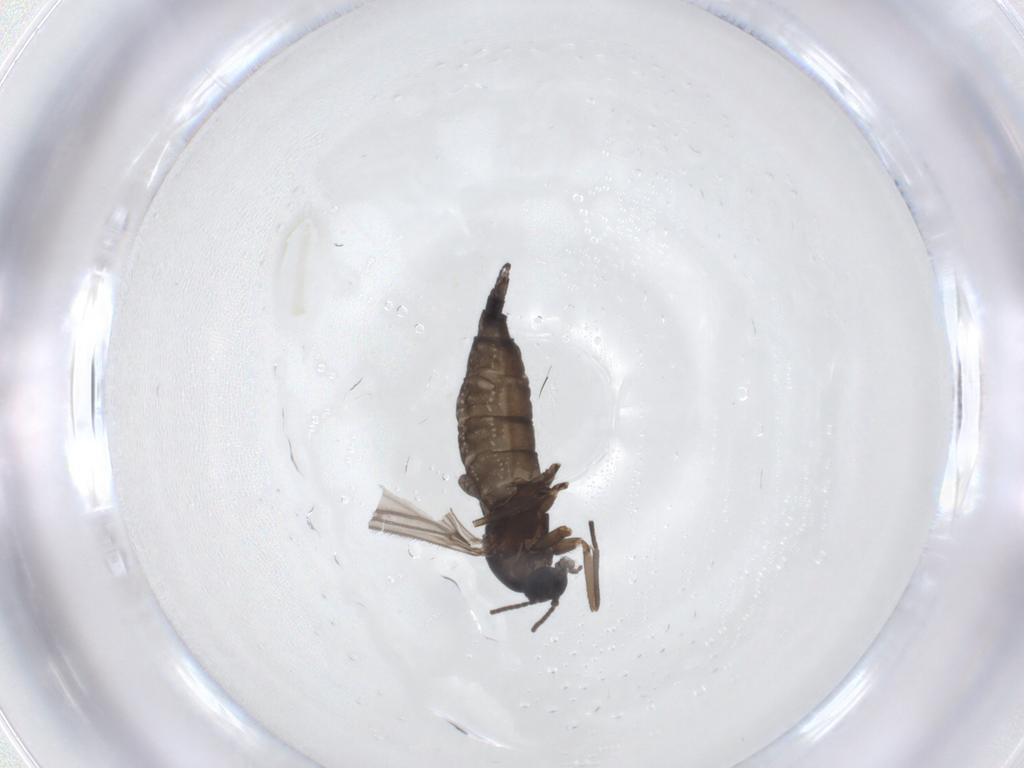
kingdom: Animalia
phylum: Arthropoda
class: Insecta
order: Diptera
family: Sciaridae
